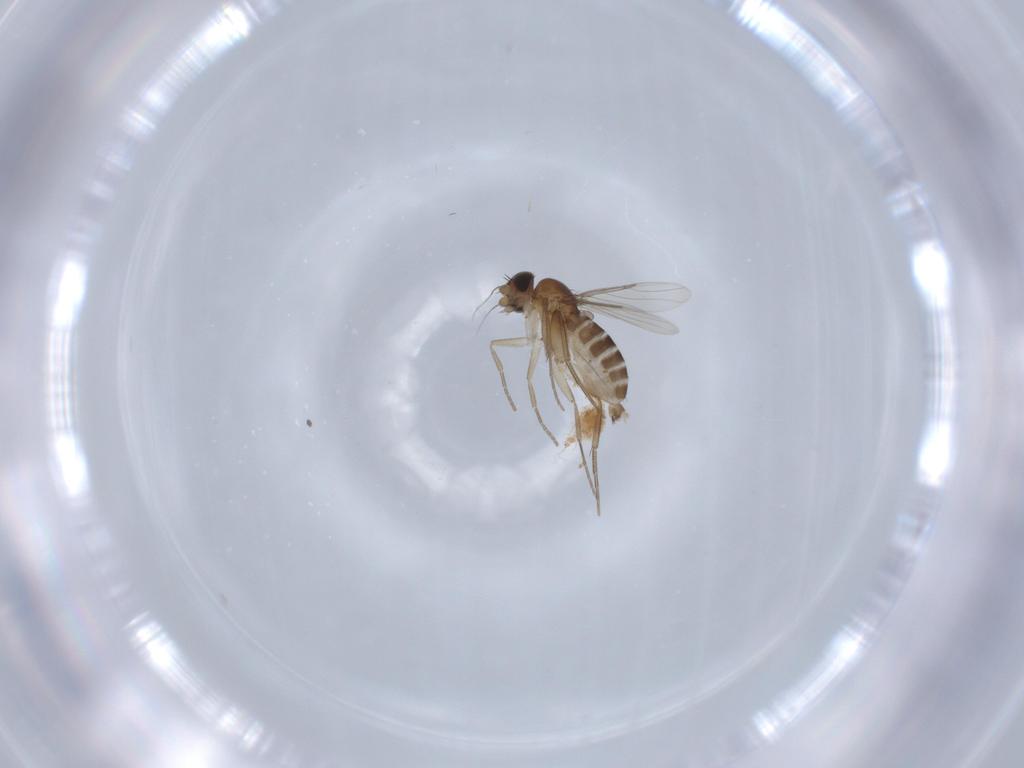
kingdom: Animalia
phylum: Arthropoda
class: Insecta
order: Diptera
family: Phoridae
